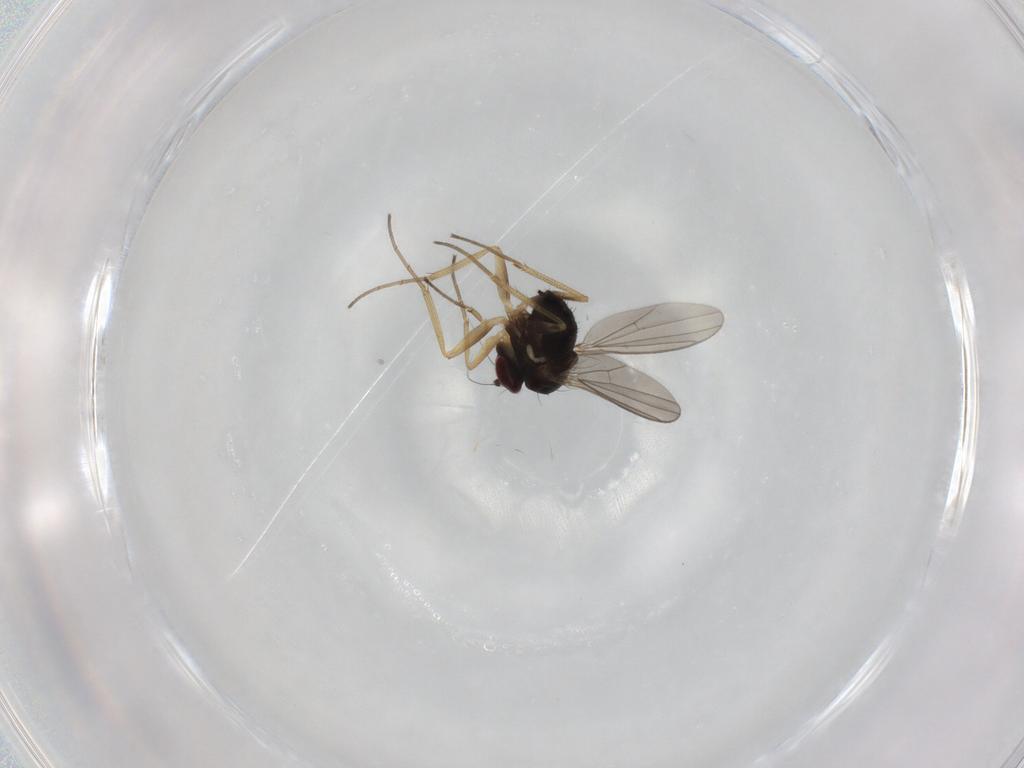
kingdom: Animalia
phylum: Arthropoda
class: Insecta
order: Diptera
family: Dolichopodidae
